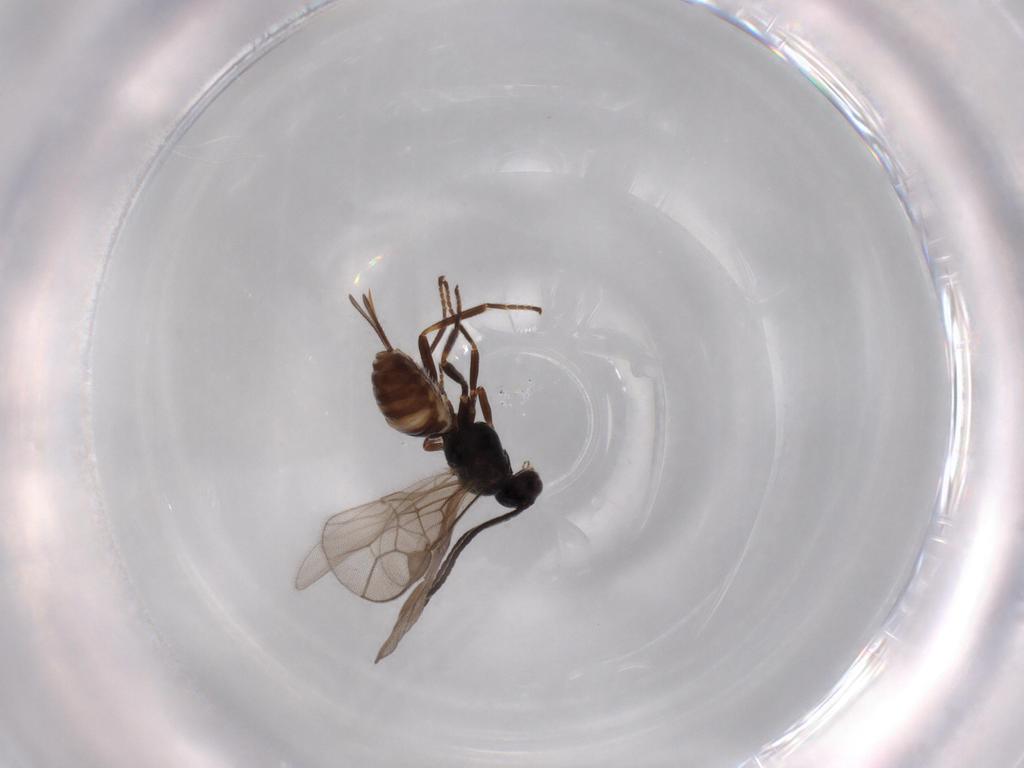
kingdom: Animalia
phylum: Arthropoda
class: Insecta
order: Hymenoptera
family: Braconidae
